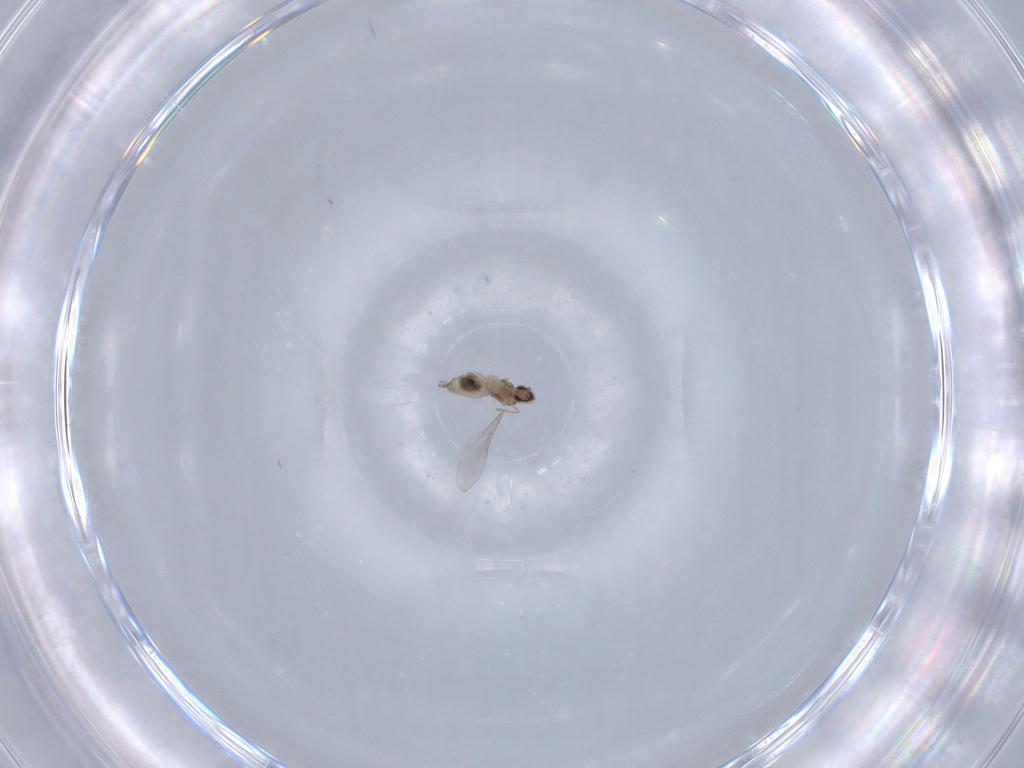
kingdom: Animalia
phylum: Arthropoda
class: Insecta
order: Diptera
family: Cecidomyiidae
